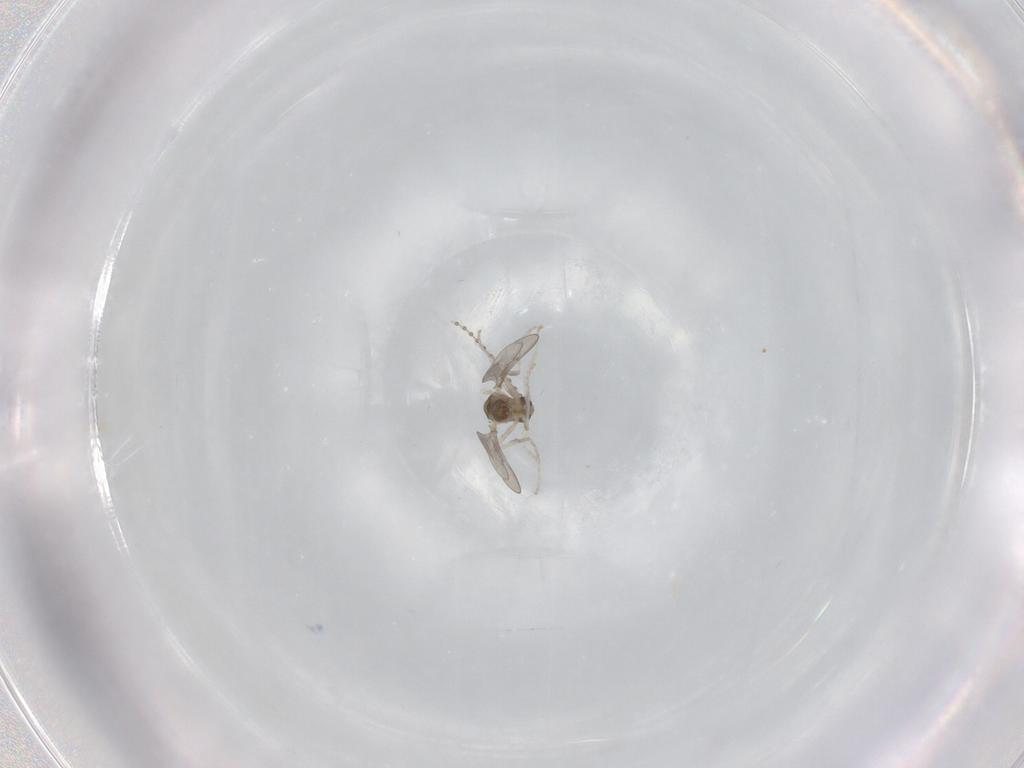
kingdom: Animalia
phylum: Arthropoda
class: Insecta
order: Diptera
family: Cecidomyiidae
